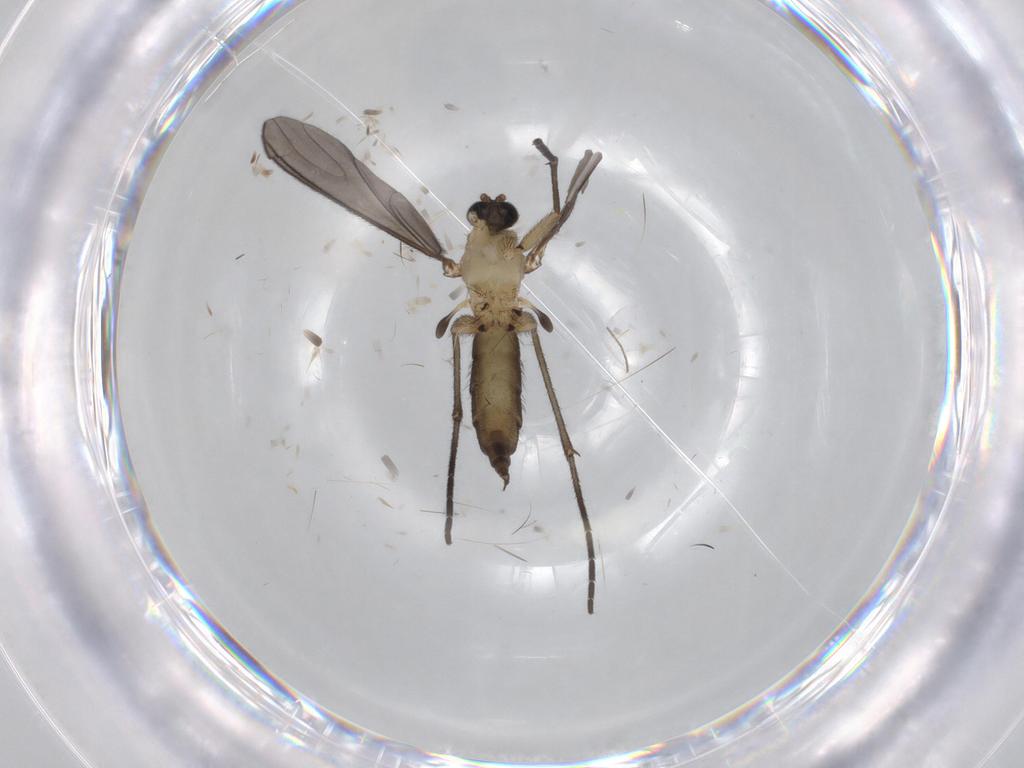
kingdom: Animalia
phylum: Arthropoda
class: Insecta
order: Diptera
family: Sciaridae
